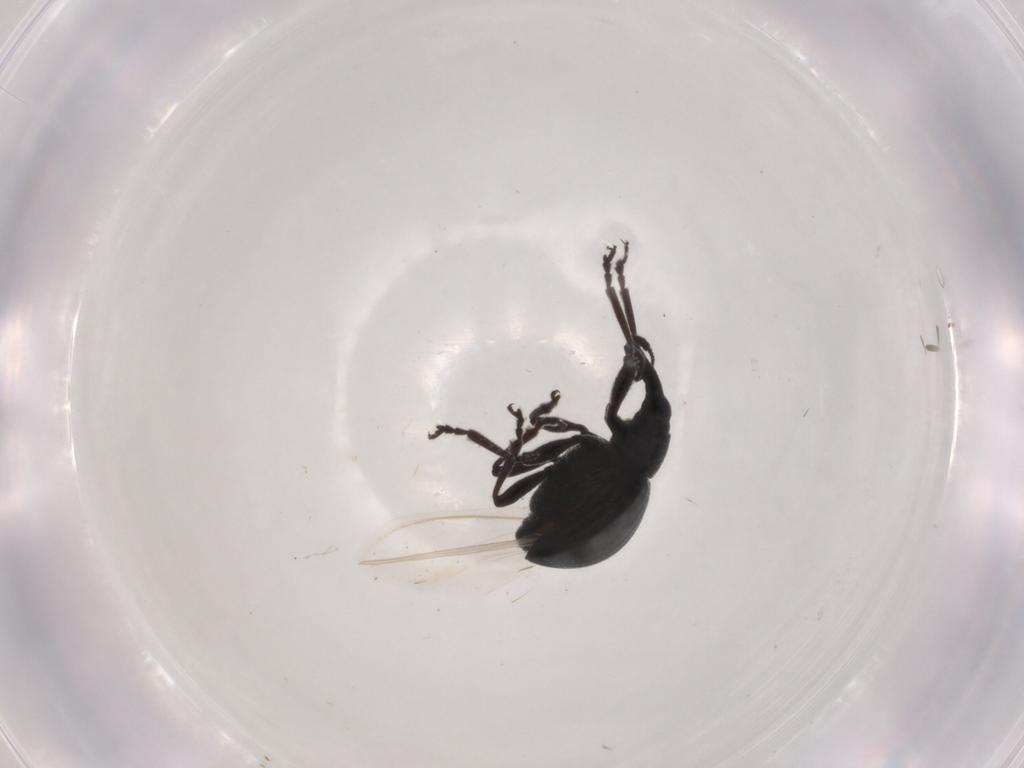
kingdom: Animalia
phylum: Arthropoda
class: Insecta
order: Coleoptera
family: Brentidae
